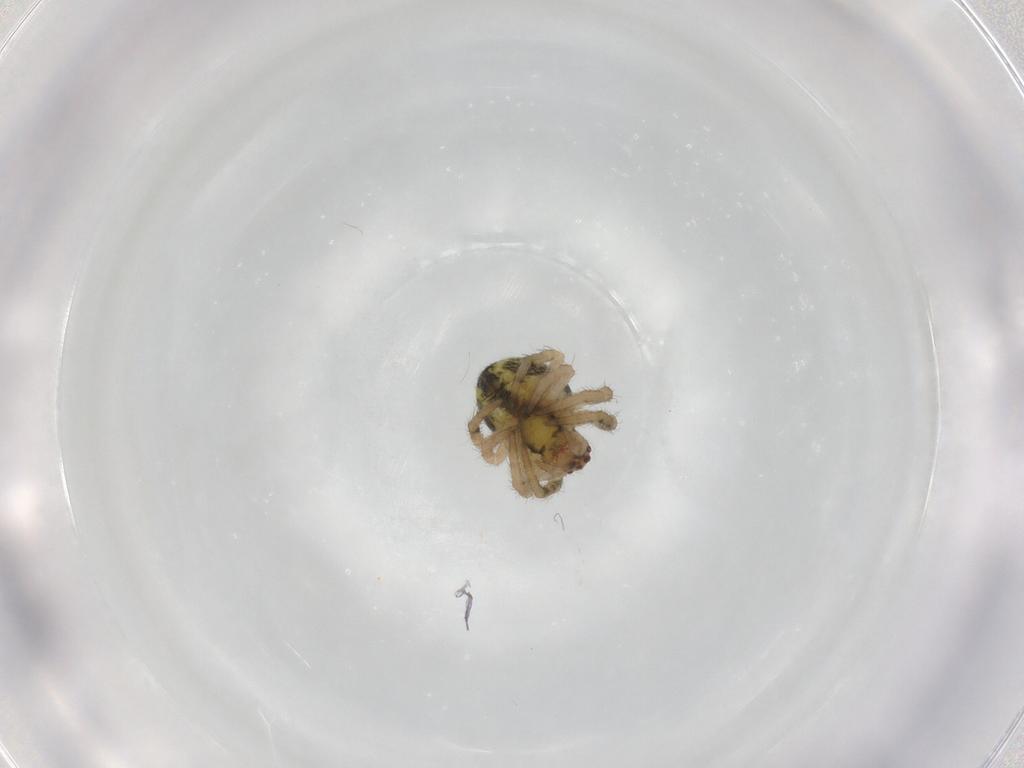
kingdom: Animalia
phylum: Arthropoda
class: Arachnida
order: Araneae
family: Araneidae
